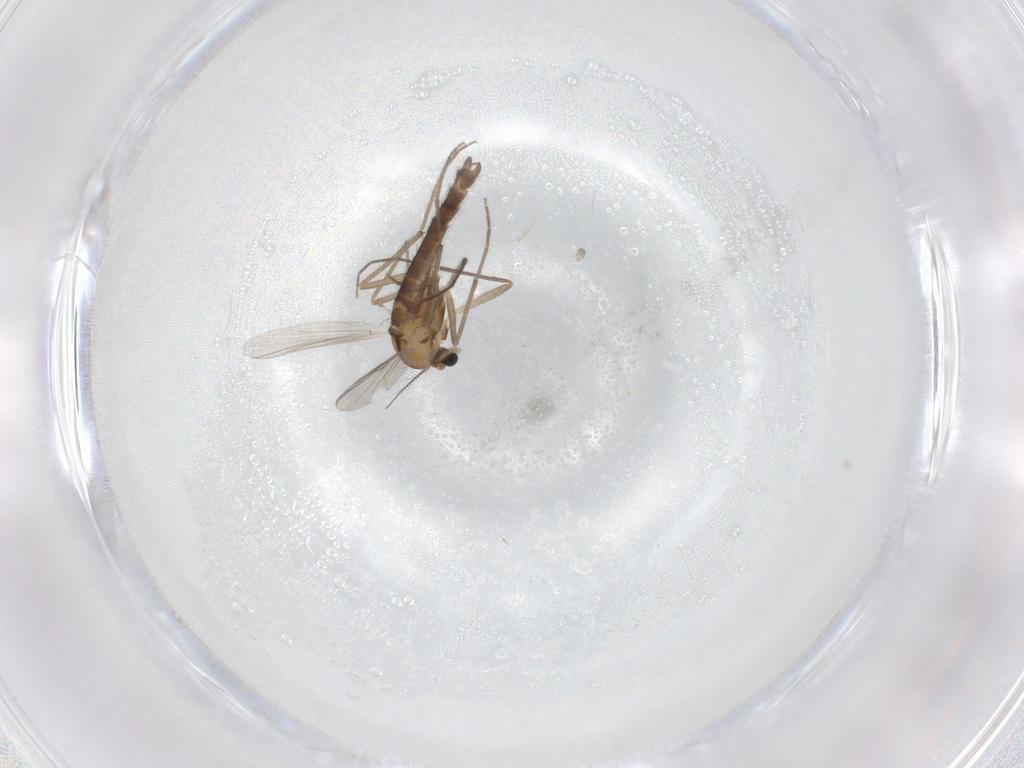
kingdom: Animalia
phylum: Arthropoda
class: Insecta
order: Diptera
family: Chironomidae
